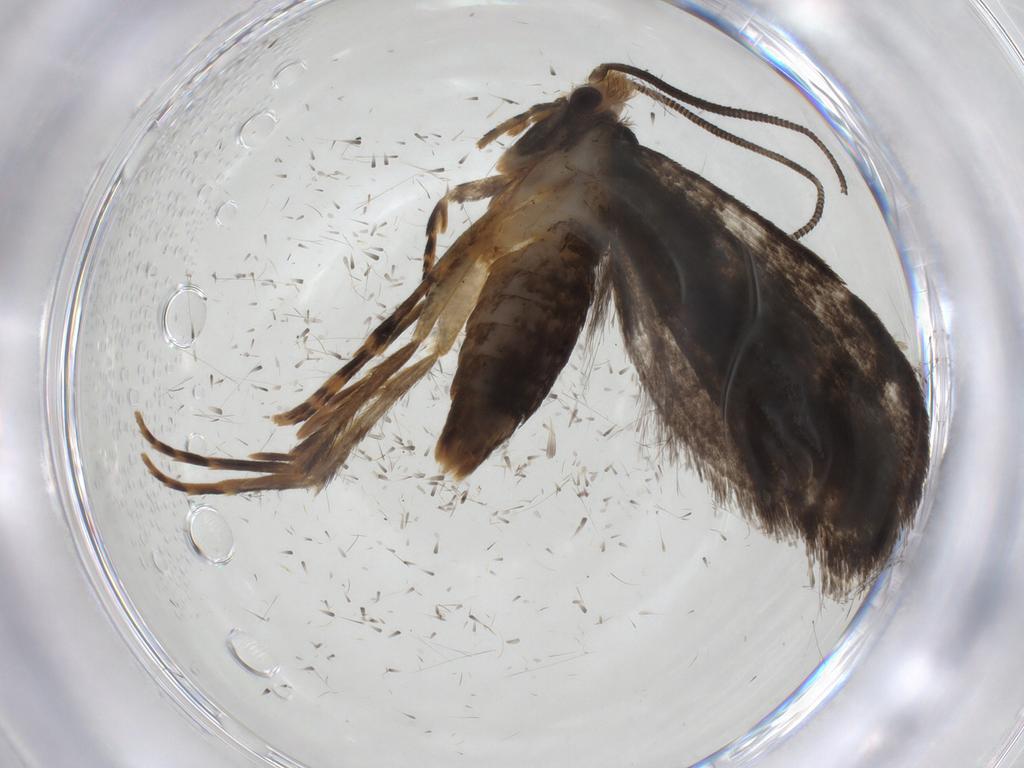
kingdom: Animalia
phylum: Arthropoda
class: Insecta
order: Lepidoptera
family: Tineidae
